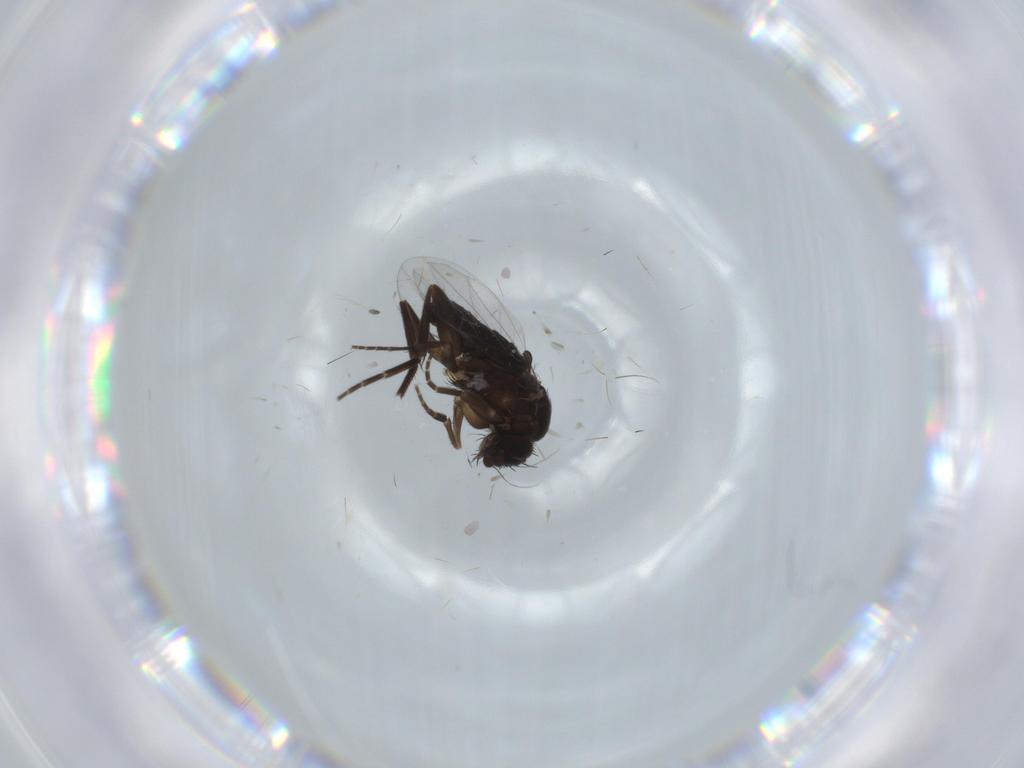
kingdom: Animalia
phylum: Arthropoda
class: Insecta
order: Diptera
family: Phoridae
